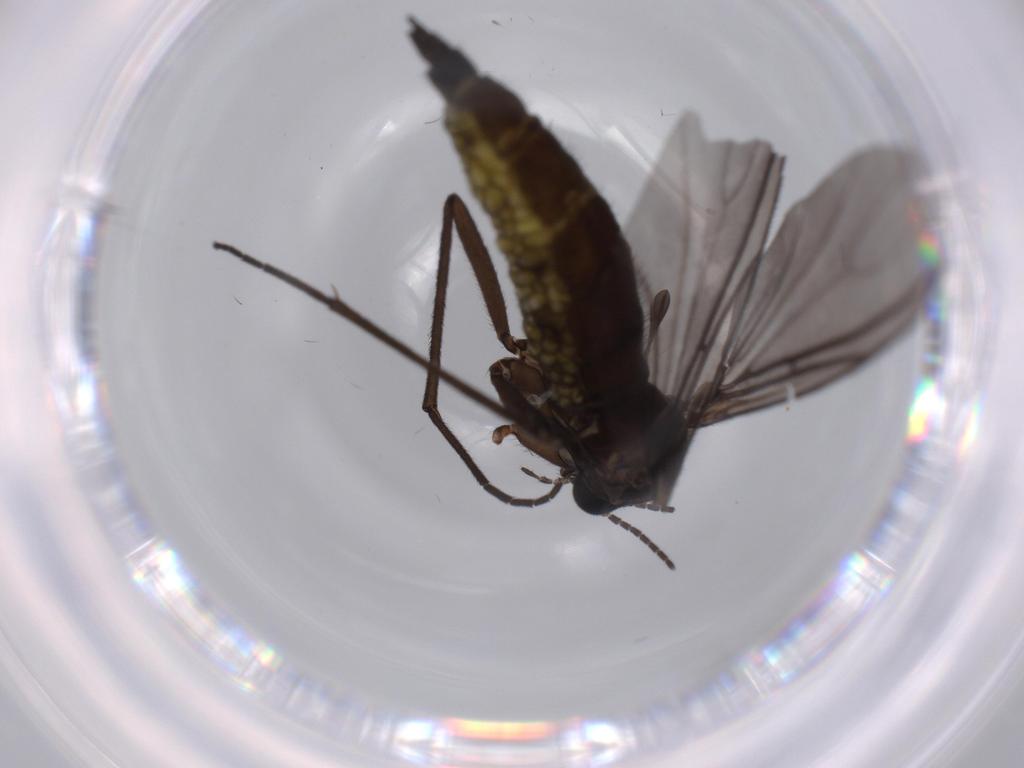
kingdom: Animalia
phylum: Arthropoda
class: Insecta
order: Diptera
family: Sciaridae
